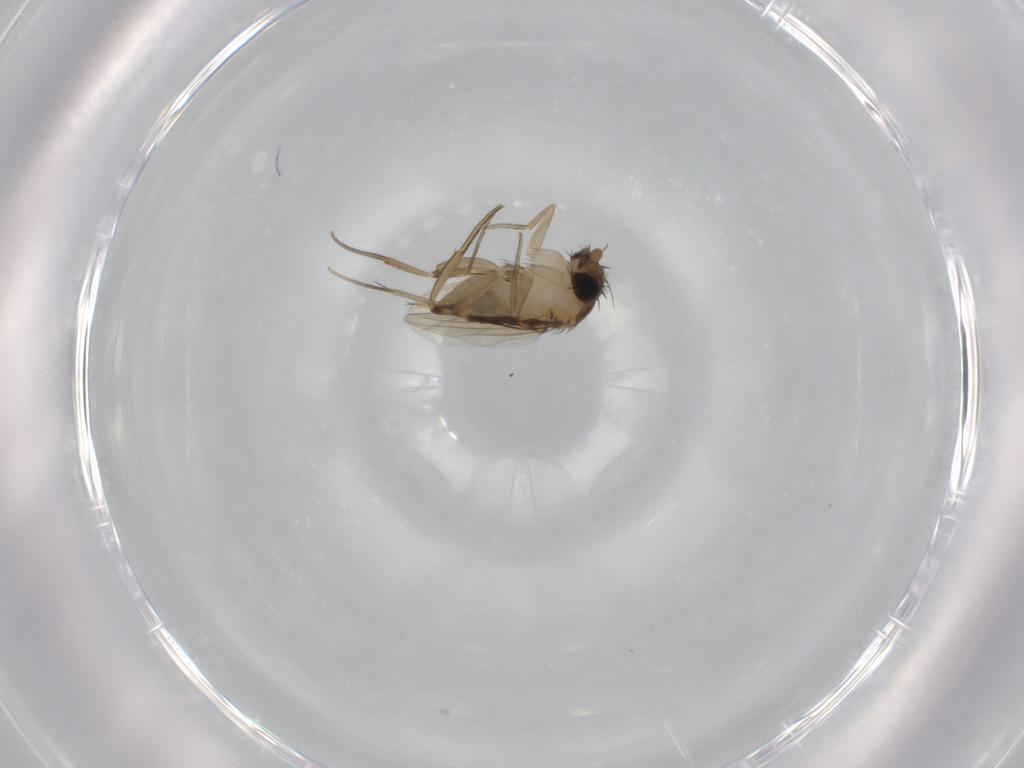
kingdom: Animalia
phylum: Arthropoda
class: Insecta
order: Diptera
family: Phoridae
